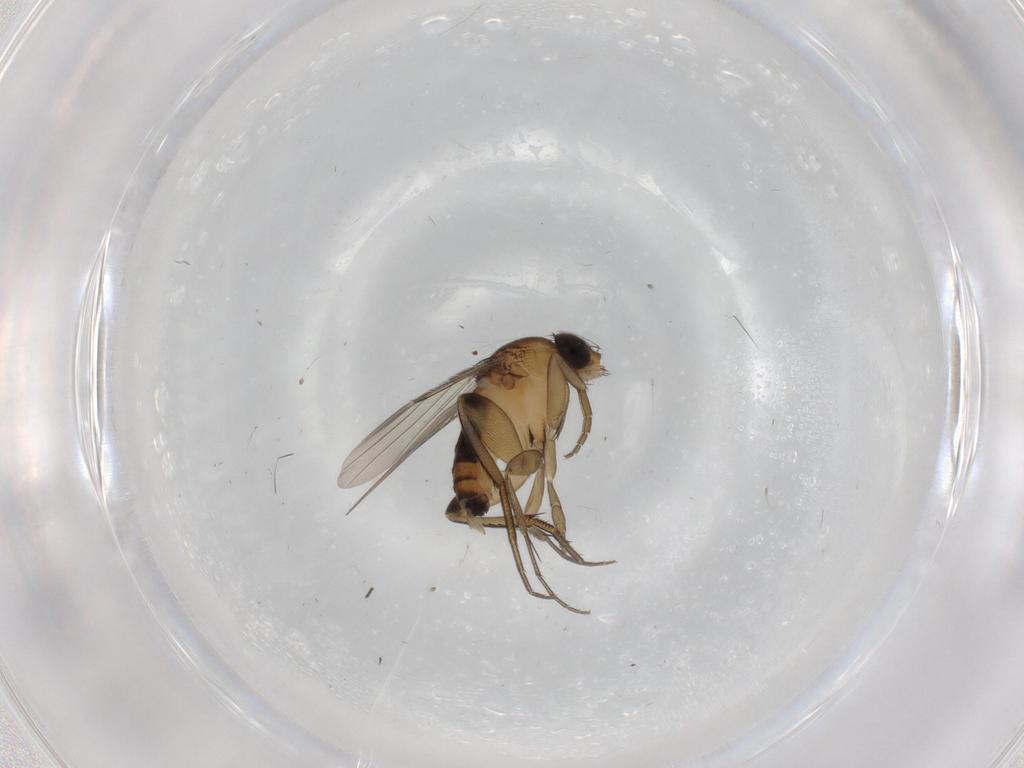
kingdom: Animalia
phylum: Arthropoda
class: Insecta
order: Diptera
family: Phoridae
